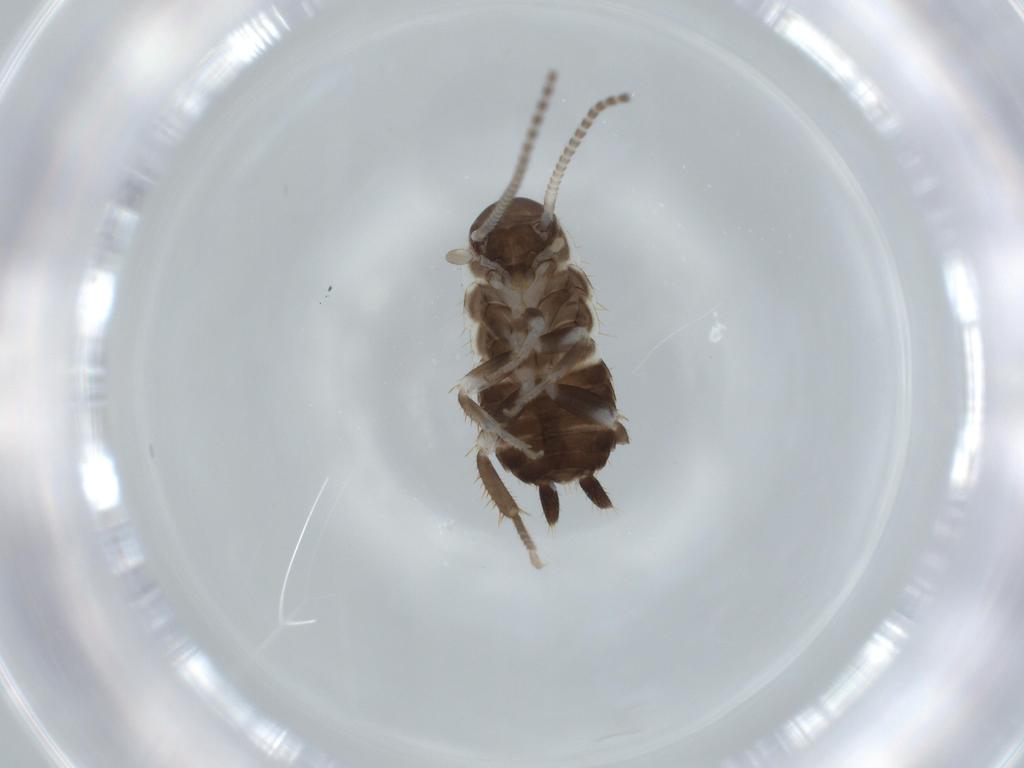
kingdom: Animalia
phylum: Arthropoda
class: Insecta
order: Blattodea
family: Ectobiidae
